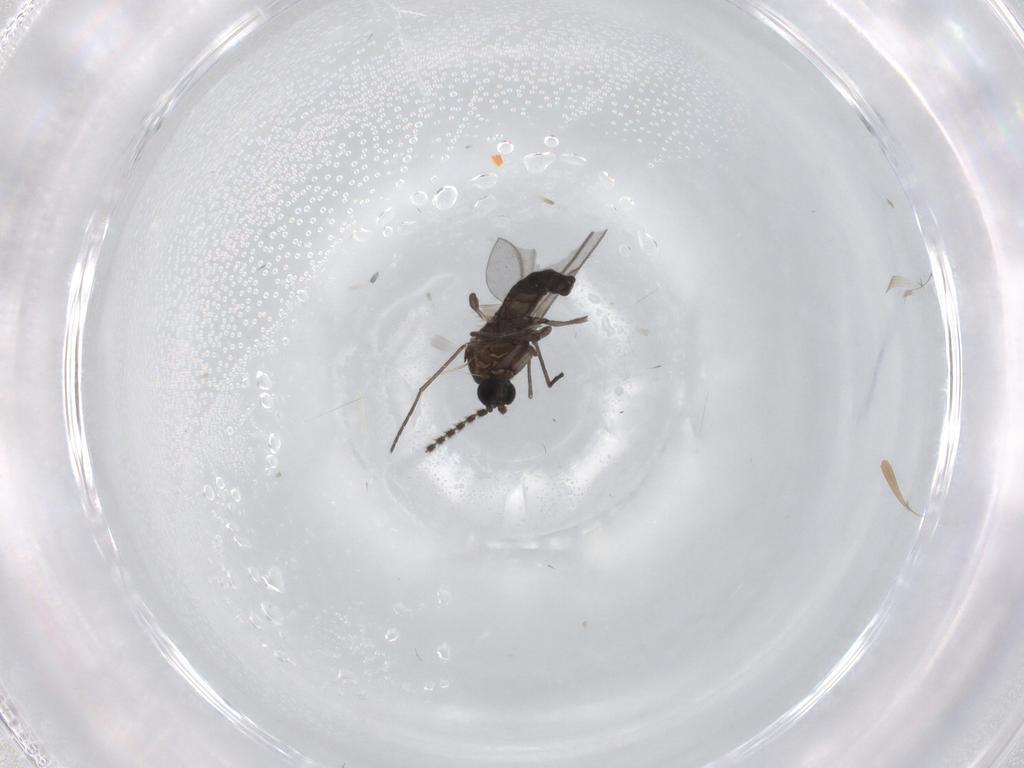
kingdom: Animalia
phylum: Arthropoda
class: Insecta
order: Diptera
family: Sciaridae
